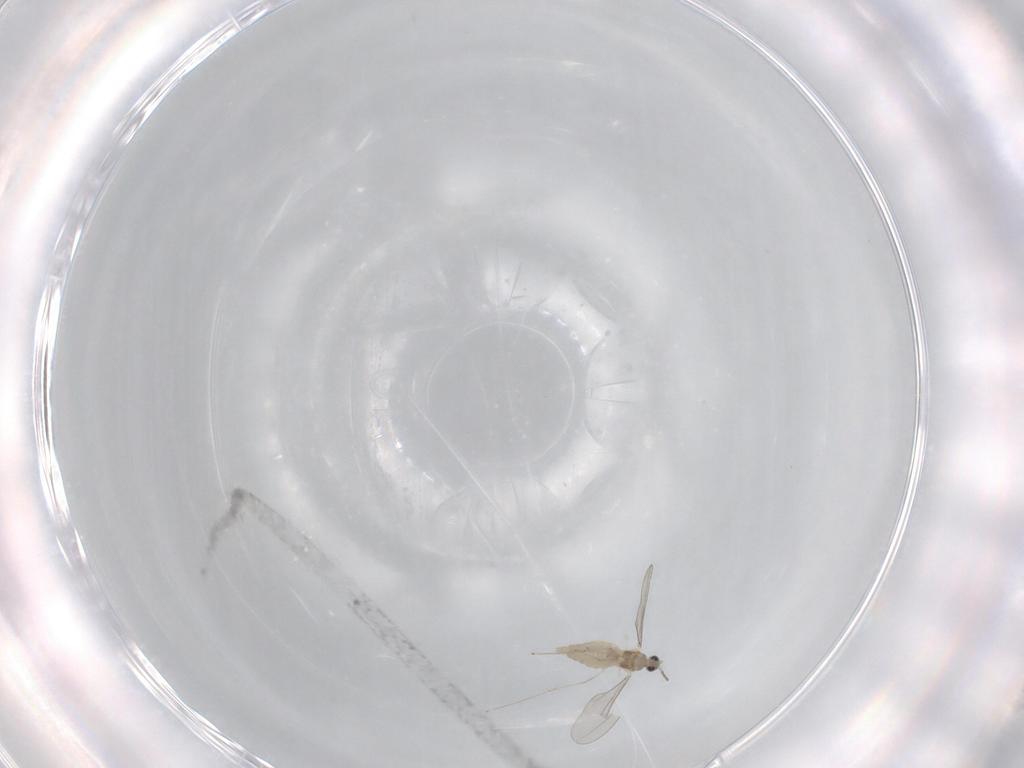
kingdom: Animalia
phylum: Arthropoda
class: Insecta
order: Diptera
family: Cecidomyiidae
